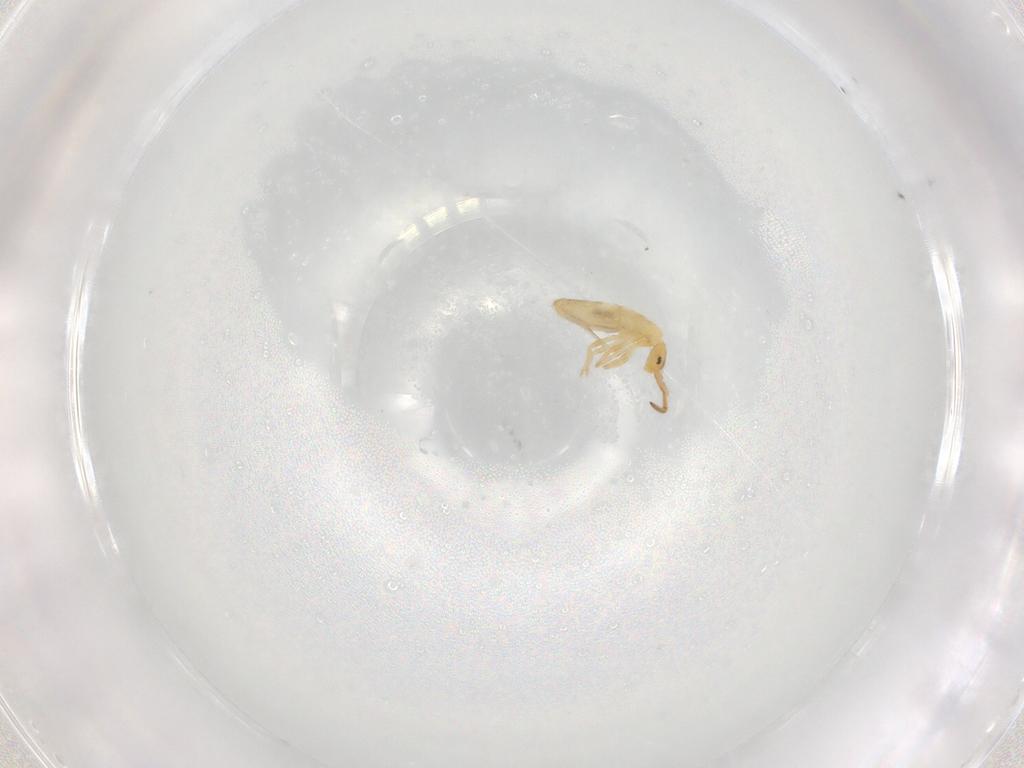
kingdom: Animalia
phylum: Arthropoda
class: Collembola
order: Entomobryomorpha
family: Entomobryidae
